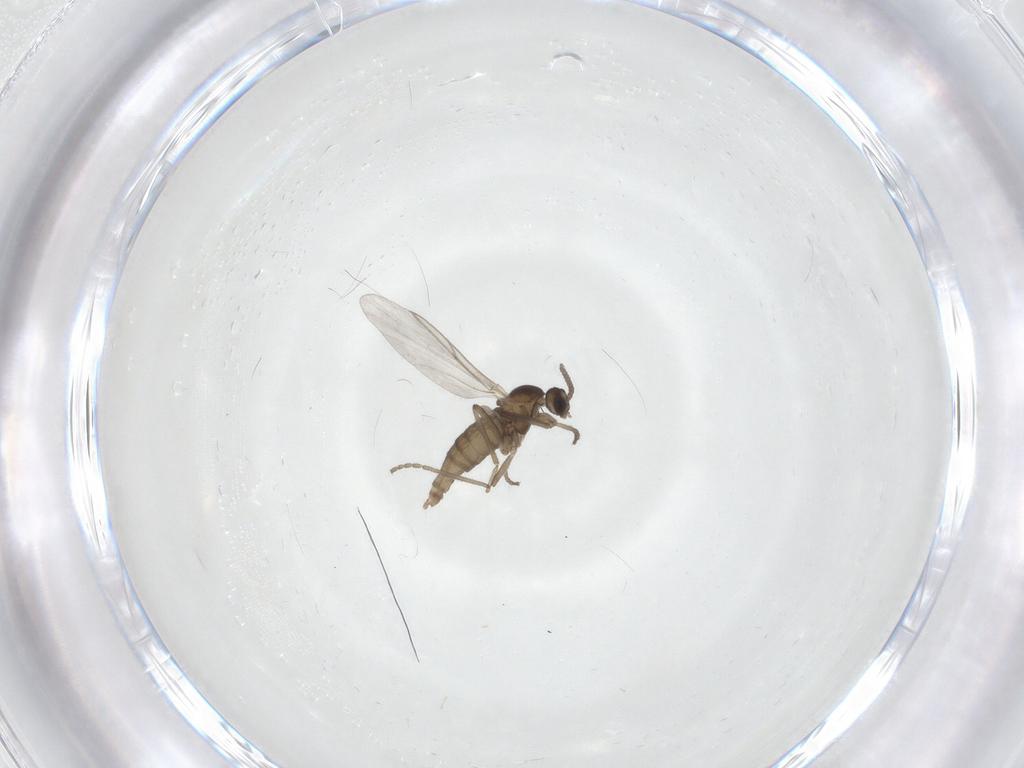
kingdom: Animalia
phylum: Arthropoda
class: Insecta
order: Diptera
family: Cecidomyiidae
